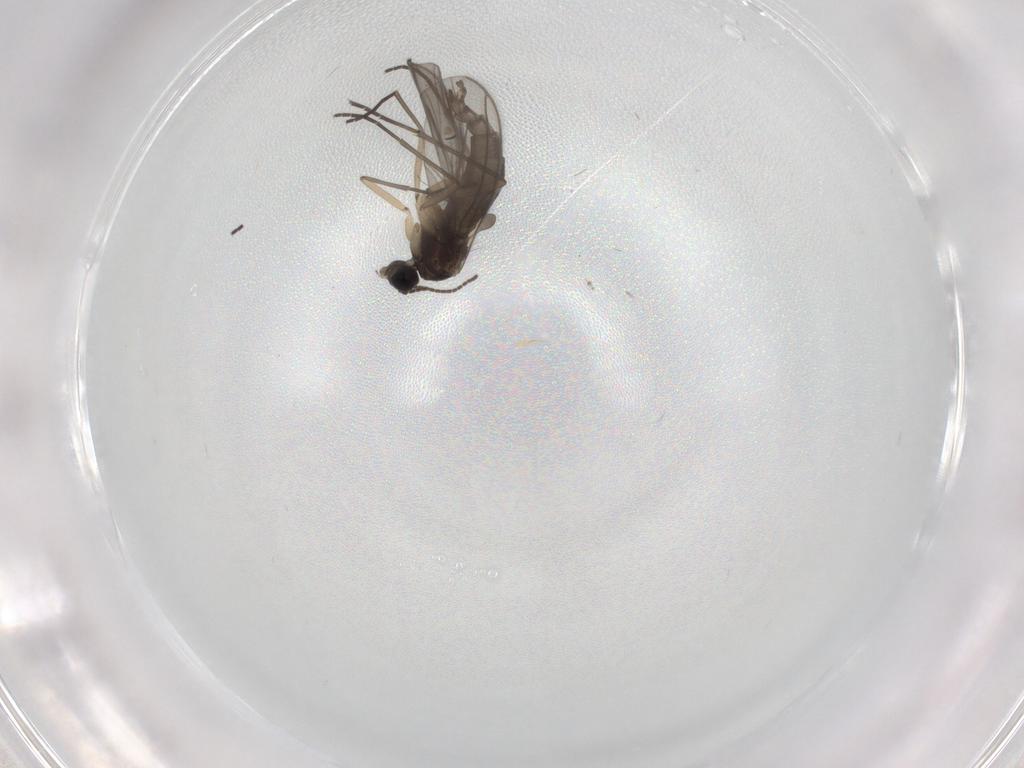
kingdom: Animalia
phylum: Arthropoda
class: Insecta
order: Diptera
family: Sciaridae
